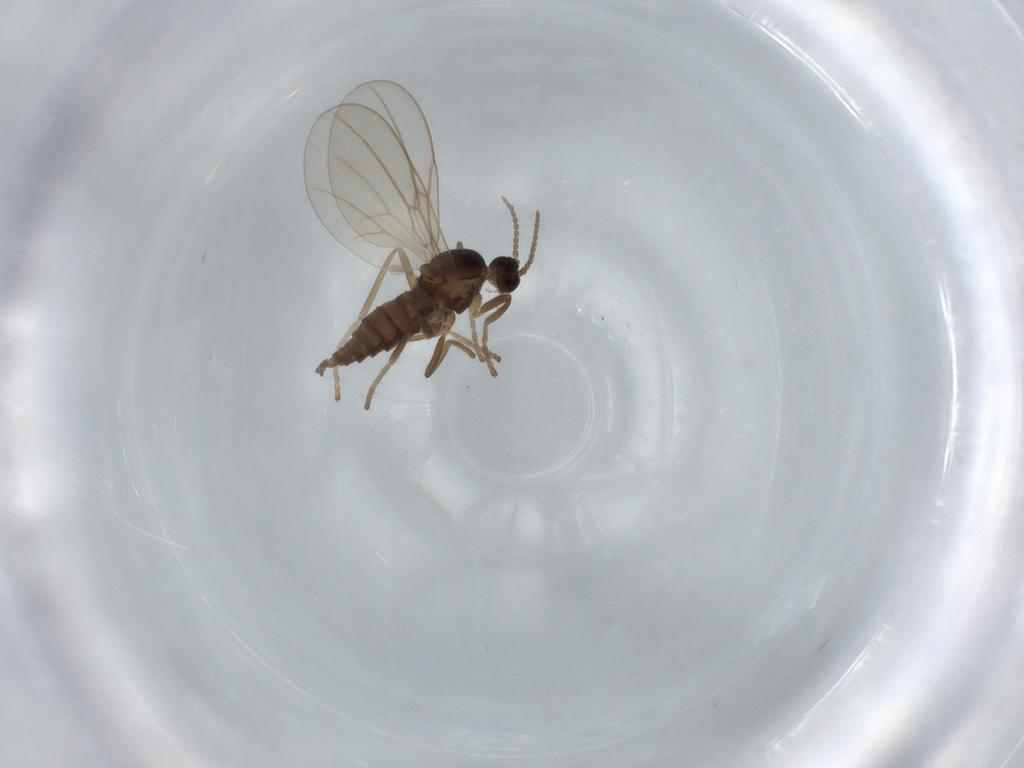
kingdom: Animalia
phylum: Arthropoda
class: Insecta
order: Diptera
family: Cecidomyiidae
